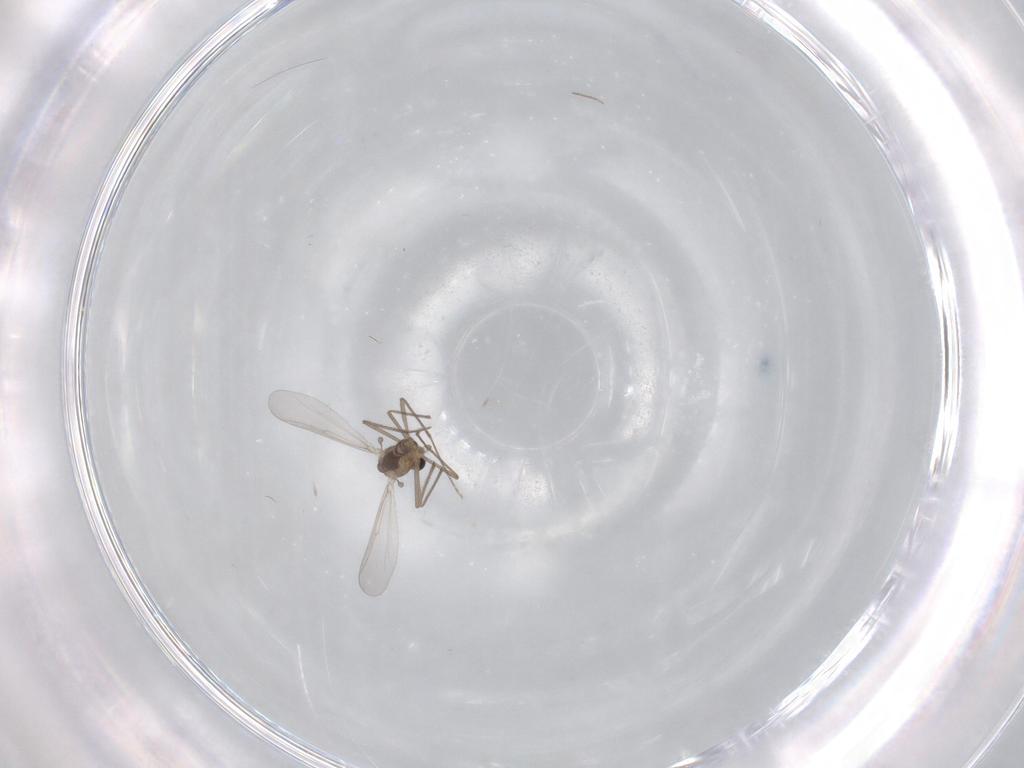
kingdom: Animalia
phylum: Arthropoda
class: Insecta
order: Diptera
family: Chironomidae
